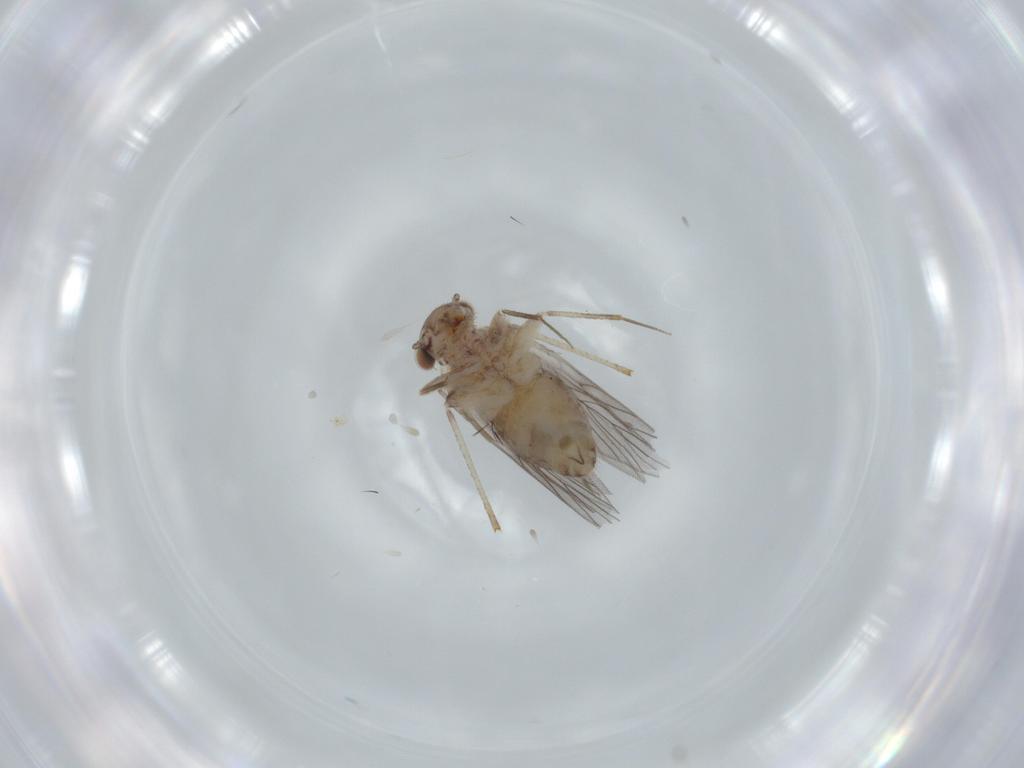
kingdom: Animalia
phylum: Arthropoda
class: Insecta
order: Psocodea
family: Lepidopsocidae
